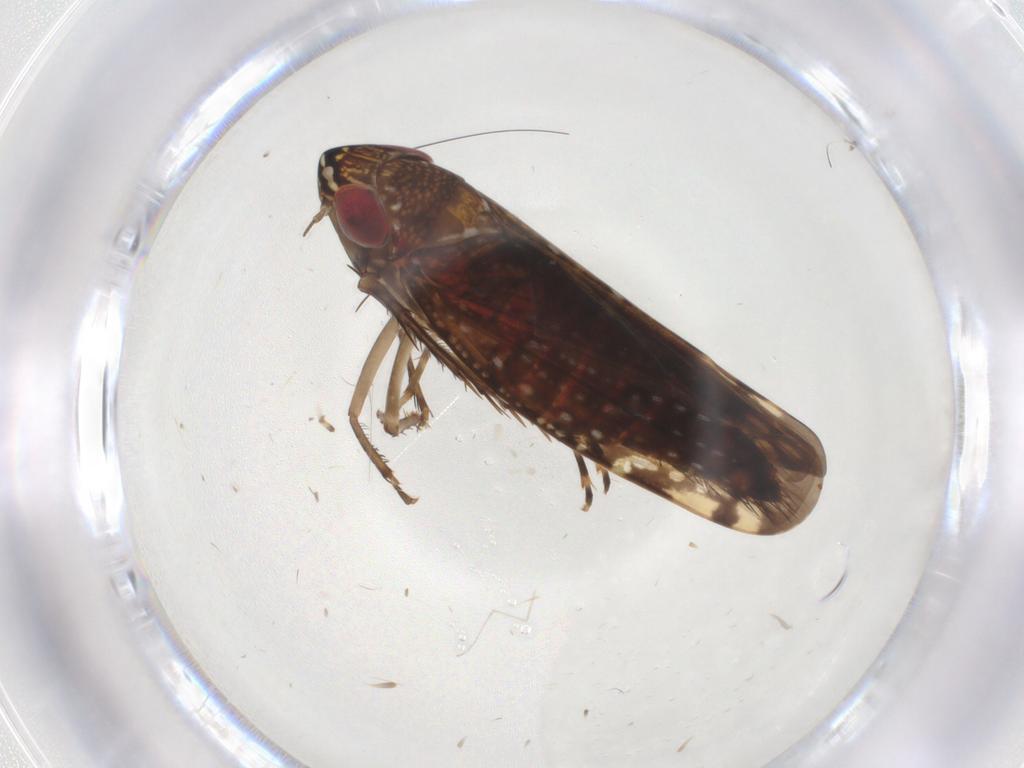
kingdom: Animalia
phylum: Arthropoda
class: Insecta
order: Hemiptera
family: Cicadellidae
